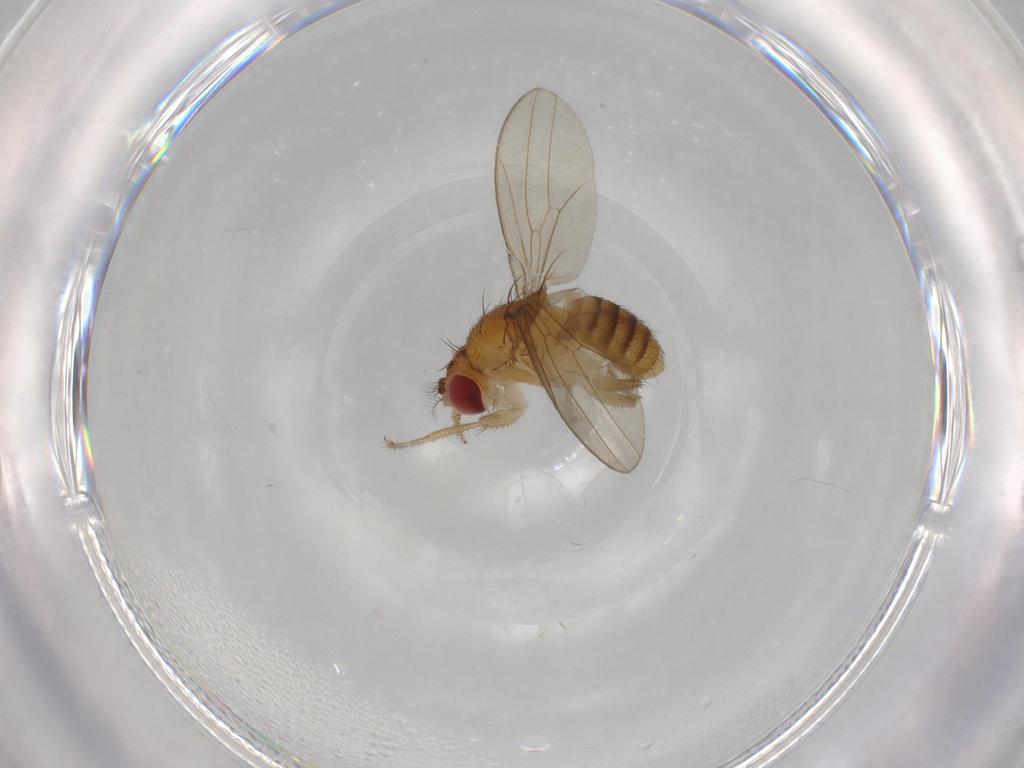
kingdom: Animalia
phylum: Arthropoda
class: Insecta
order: Diptera
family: Drosophilidae
